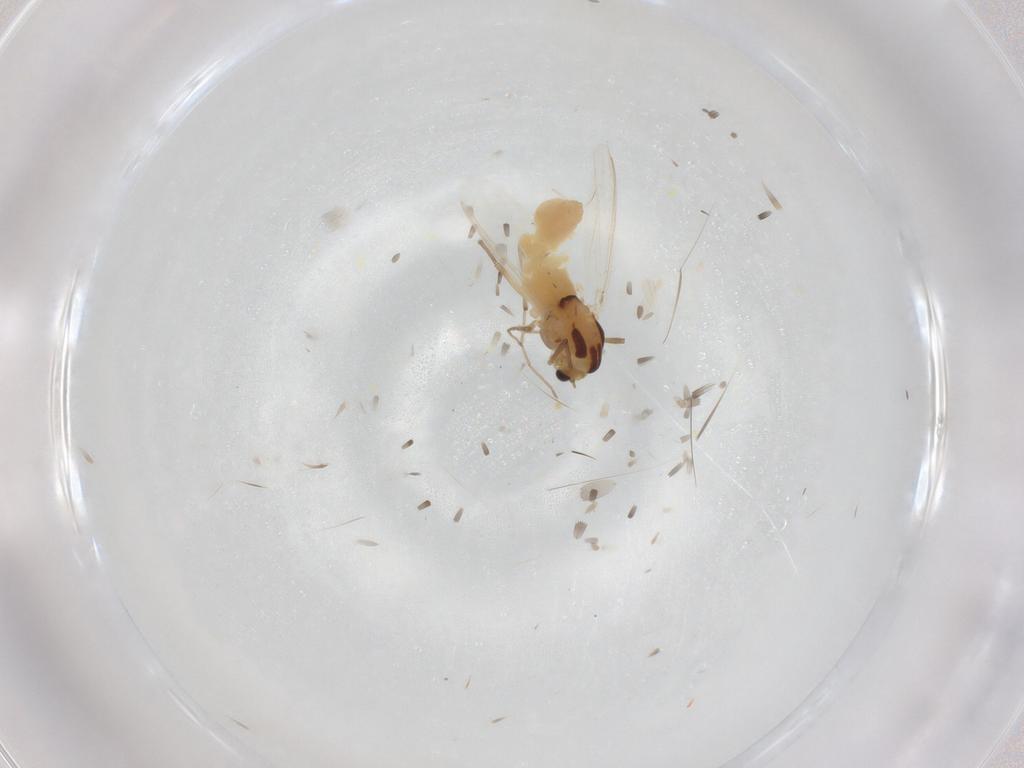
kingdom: Animalia
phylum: Arthropoda
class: Insecta
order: Diptera
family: Chironomidae
